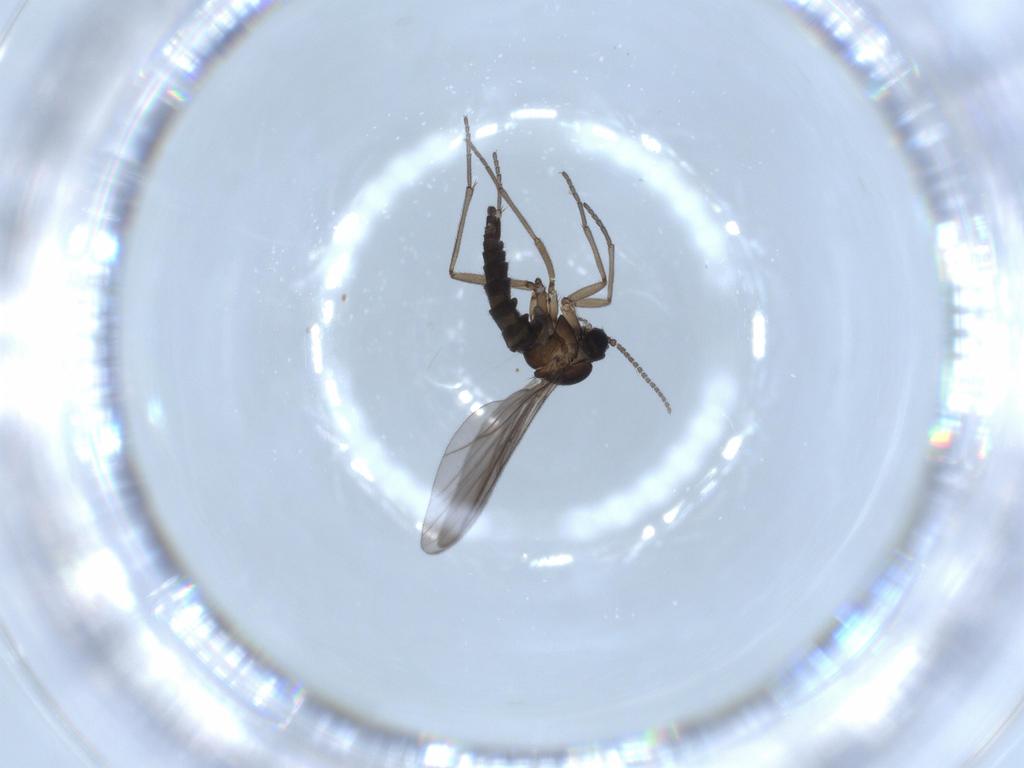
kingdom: Animalia
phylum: Arthropoda
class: Insecta
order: Diptera
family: Sciaridae
